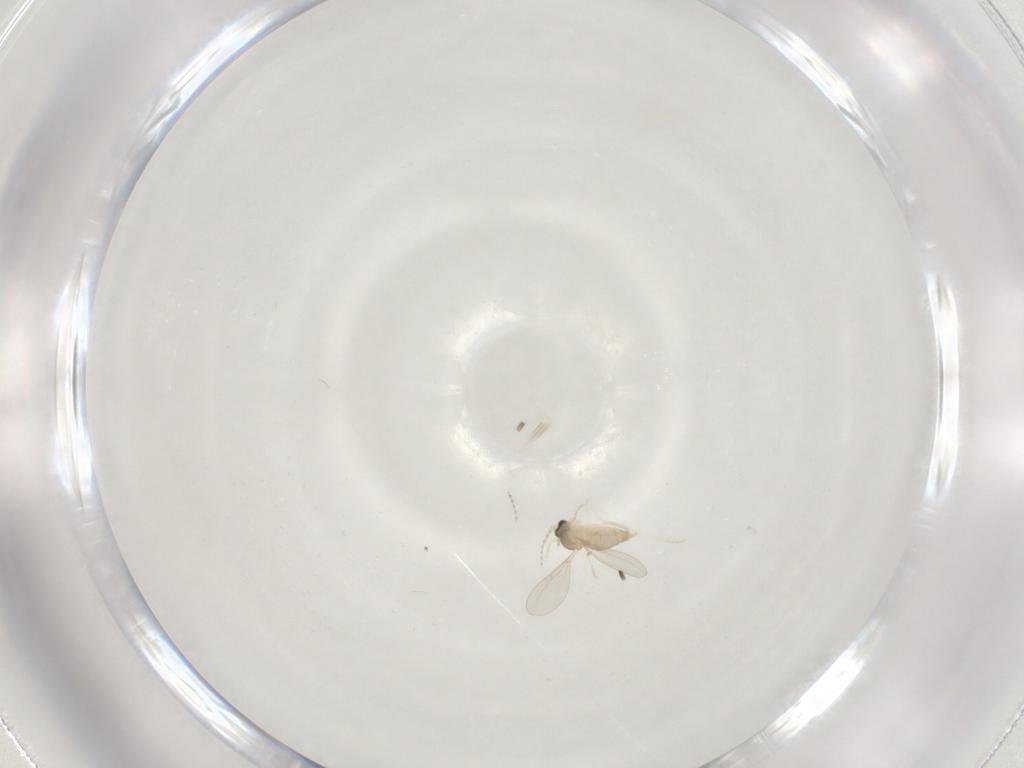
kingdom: Animalia
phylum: Arthropoda
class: Insecta
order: Diptera
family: Cecidomyiidae
